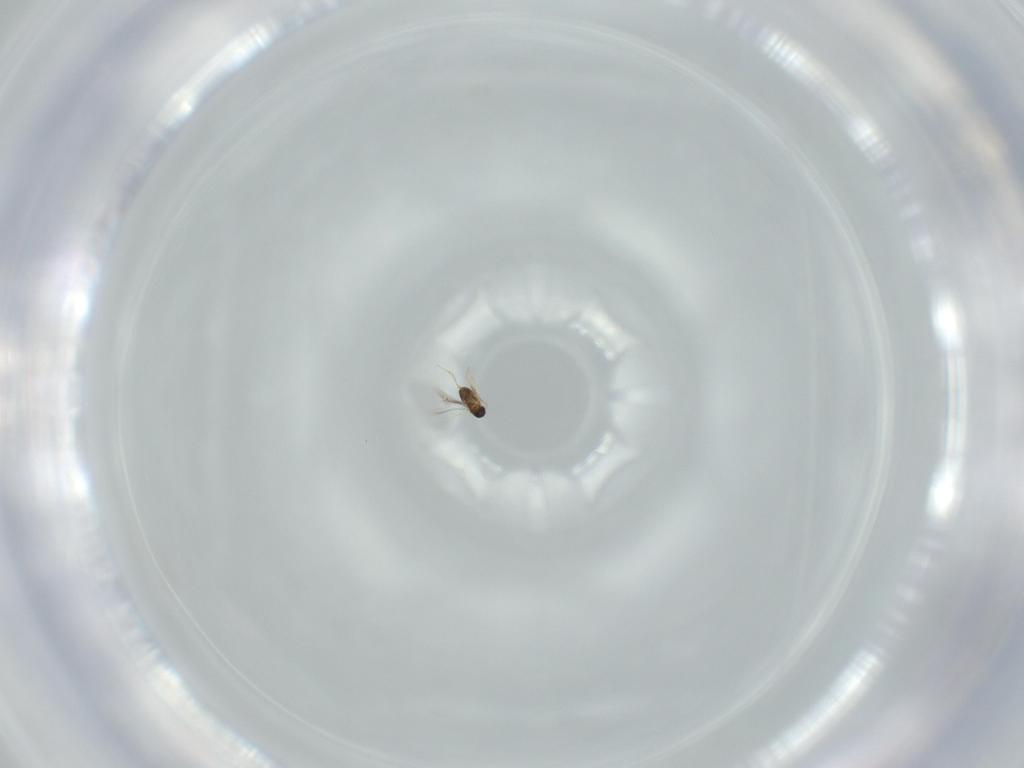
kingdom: Animalia
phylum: Arthropoda
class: Insecta
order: Hymenoptera
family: Mymaridae
